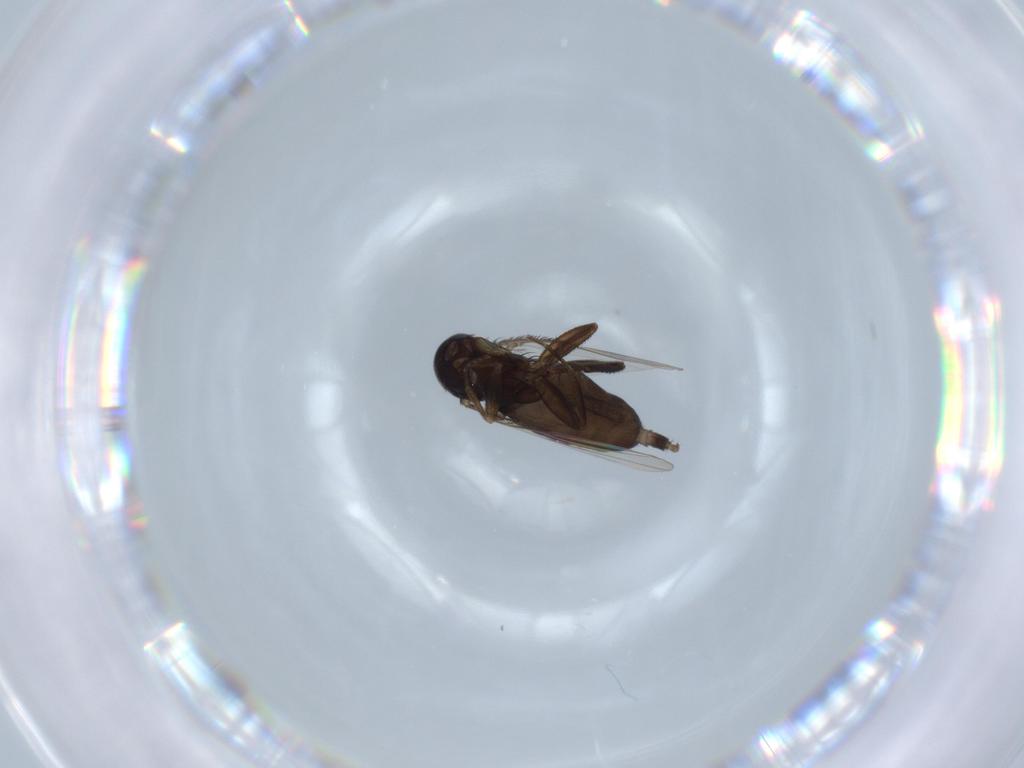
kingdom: Animalia
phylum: Arthropoda
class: Insecta
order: Diptera
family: Phoridae
